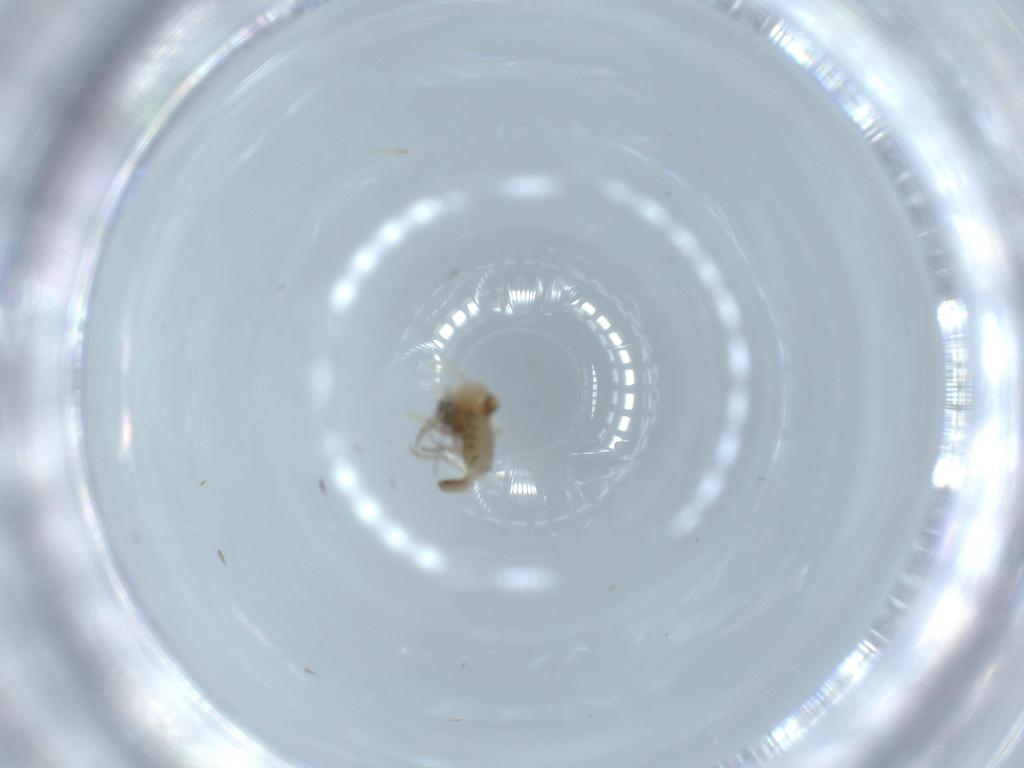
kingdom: Animalia
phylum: Arthropoda
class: Insecta
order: Diptera
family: Ceratopogonidae
